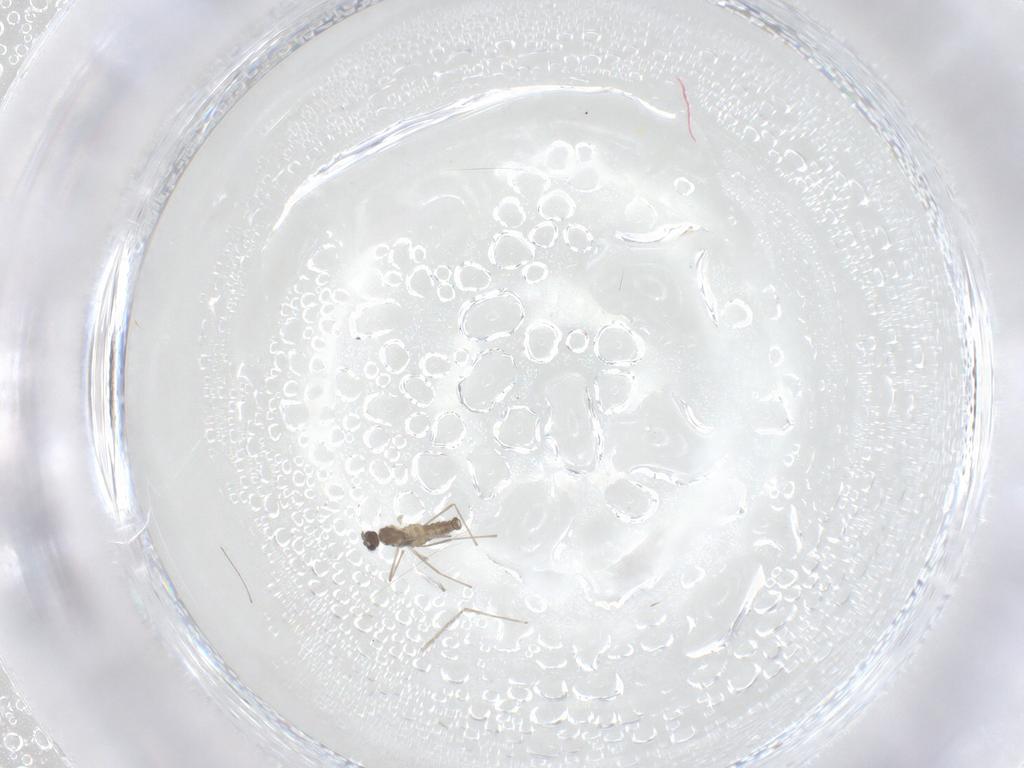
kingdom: Animalia
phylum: Arthropoda
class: Insecta
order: Diptera
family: Cecidomyiidae
